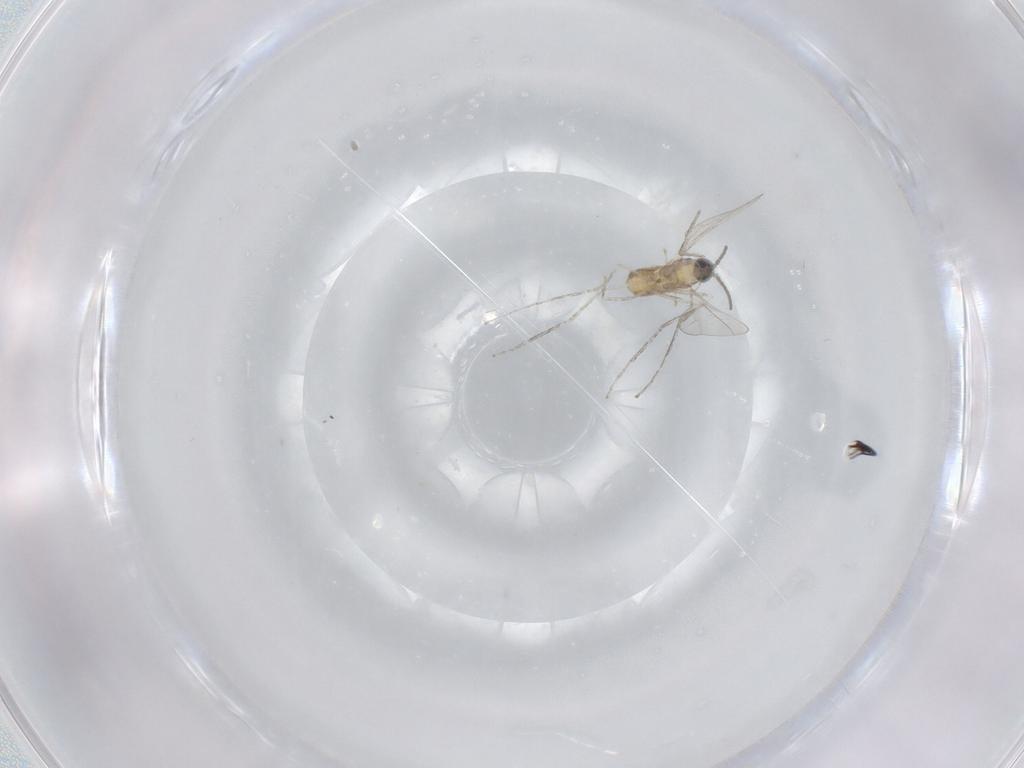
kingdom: Animalia
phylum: Arthropoda
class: Insecta
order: Diptera
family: Cecidomyiidae
